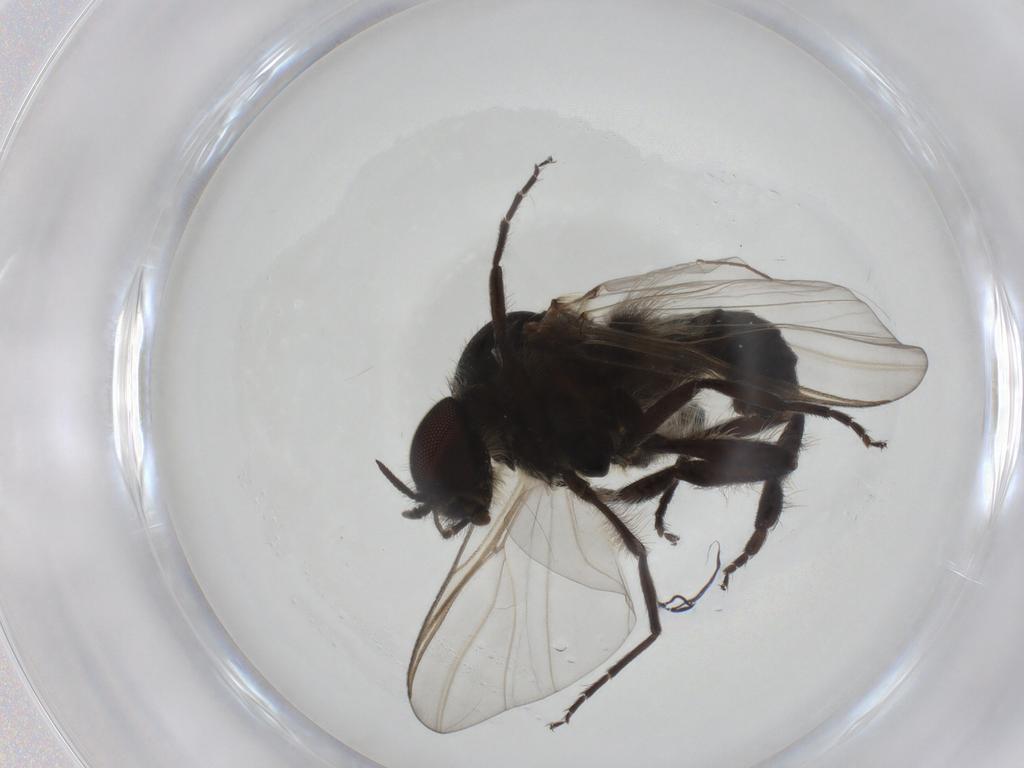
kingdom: Animalia
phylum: Arthropoda
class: Insecta
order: Diptera
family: Simuliidae
